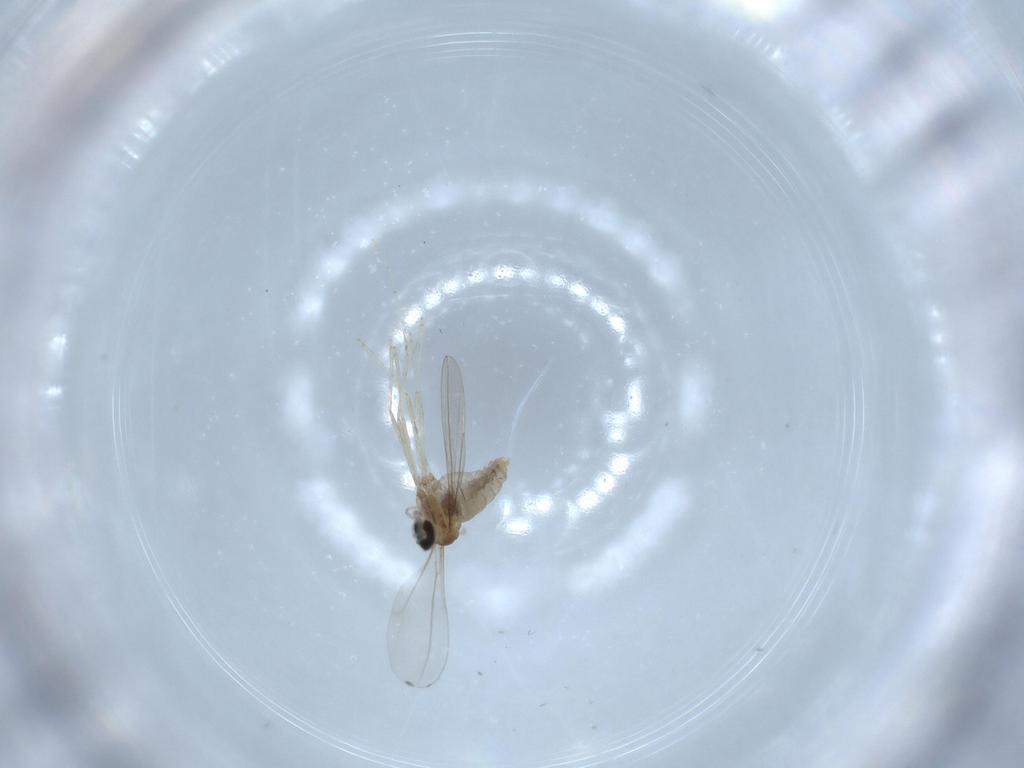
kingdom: Animalia
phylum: Arthropoda
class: Insecta
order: Diptera
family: Cecidomyiidae
